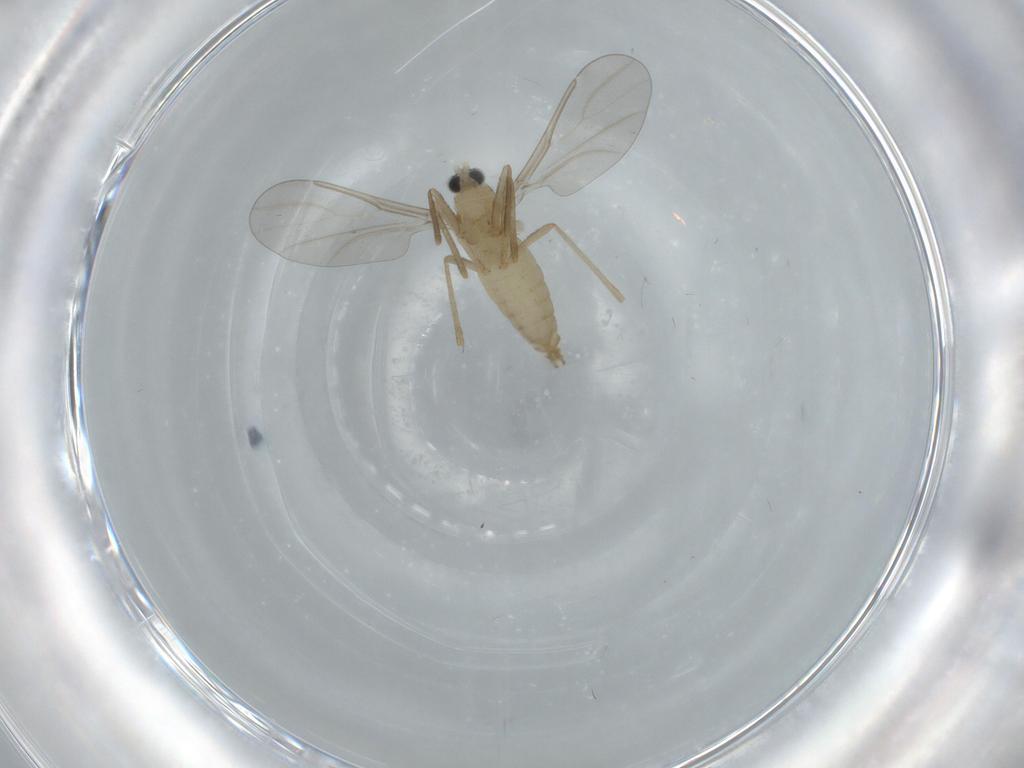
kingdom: Animalia
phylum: Arthropoda
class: Insecta
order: Diptera
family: Cecidomyiidae
